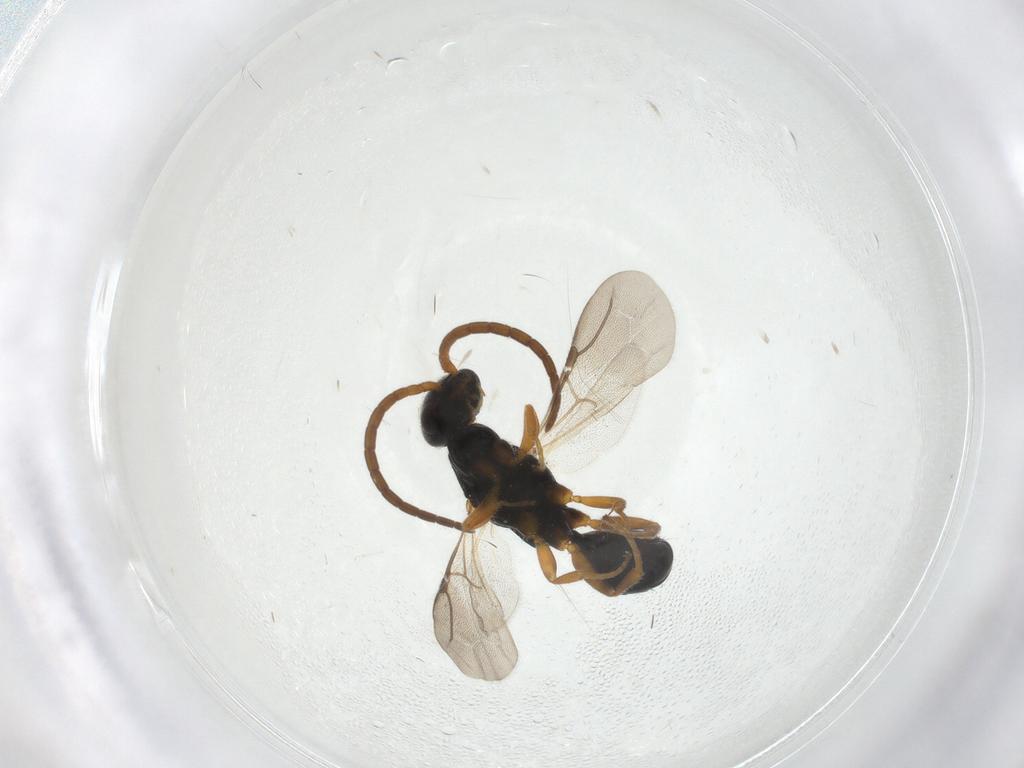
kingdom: Animalia
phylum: Arthropoda
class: Insecta
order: Hymenoptera
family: Bethylidae
